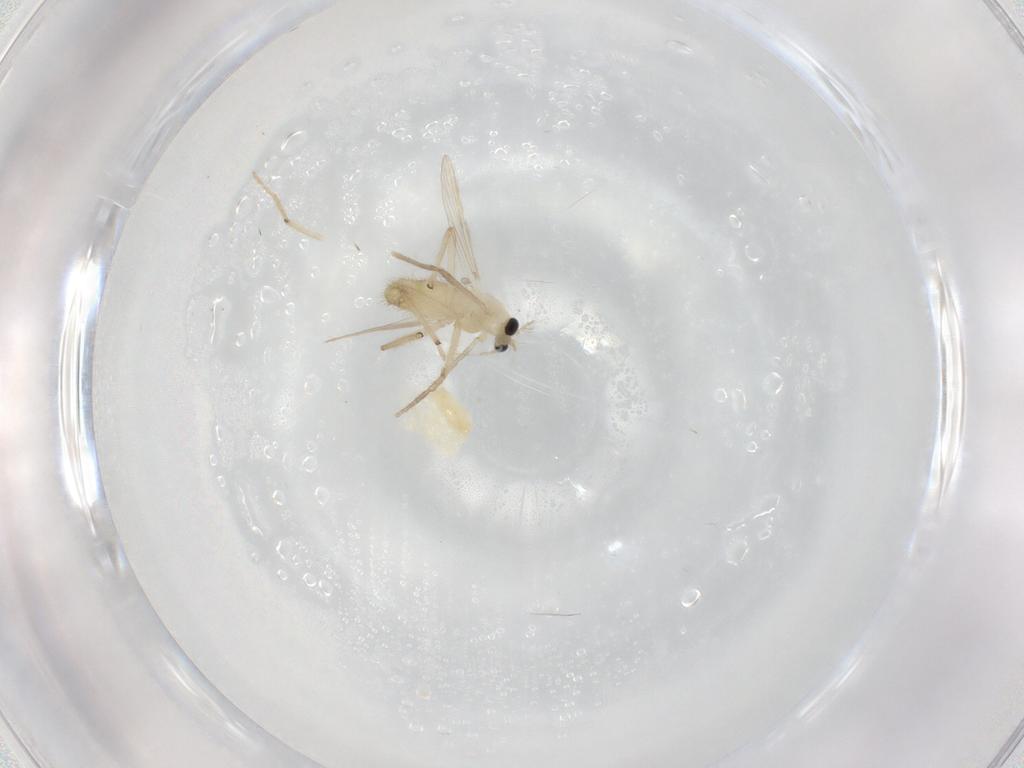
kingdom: Animalia
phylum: Arthropoda
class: Insecta
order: Diptera
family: Chironomidae
